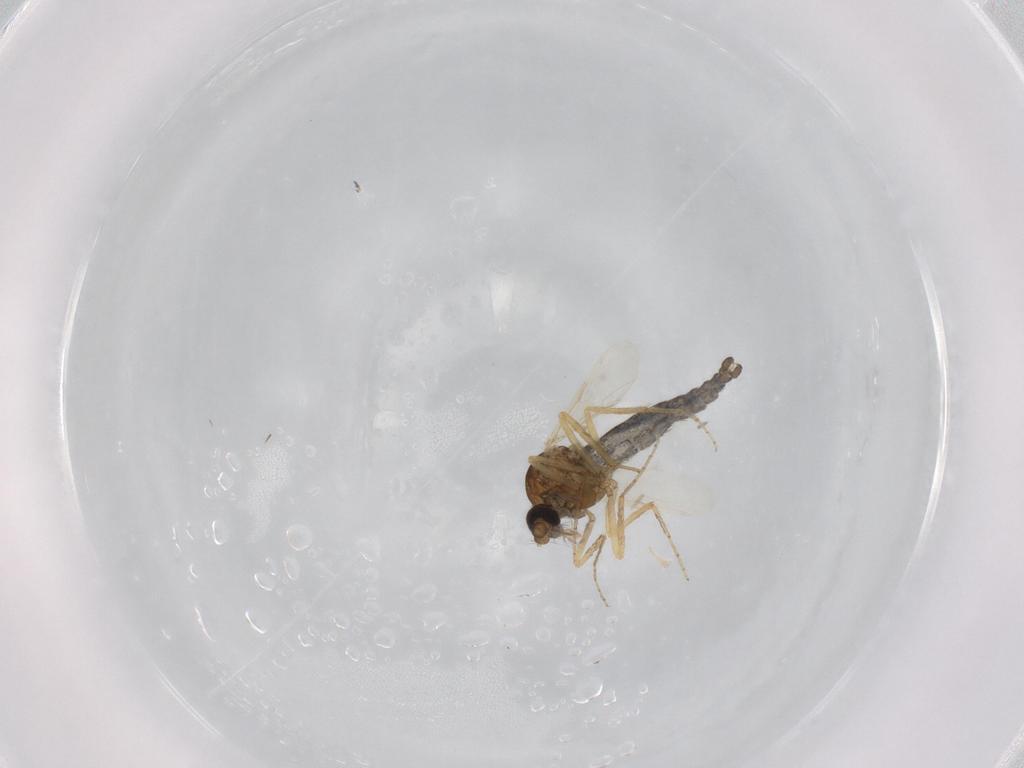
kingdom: Animalia
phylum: Arthropoda
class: Insecta
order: Diptera
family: Ceratopogonidae
